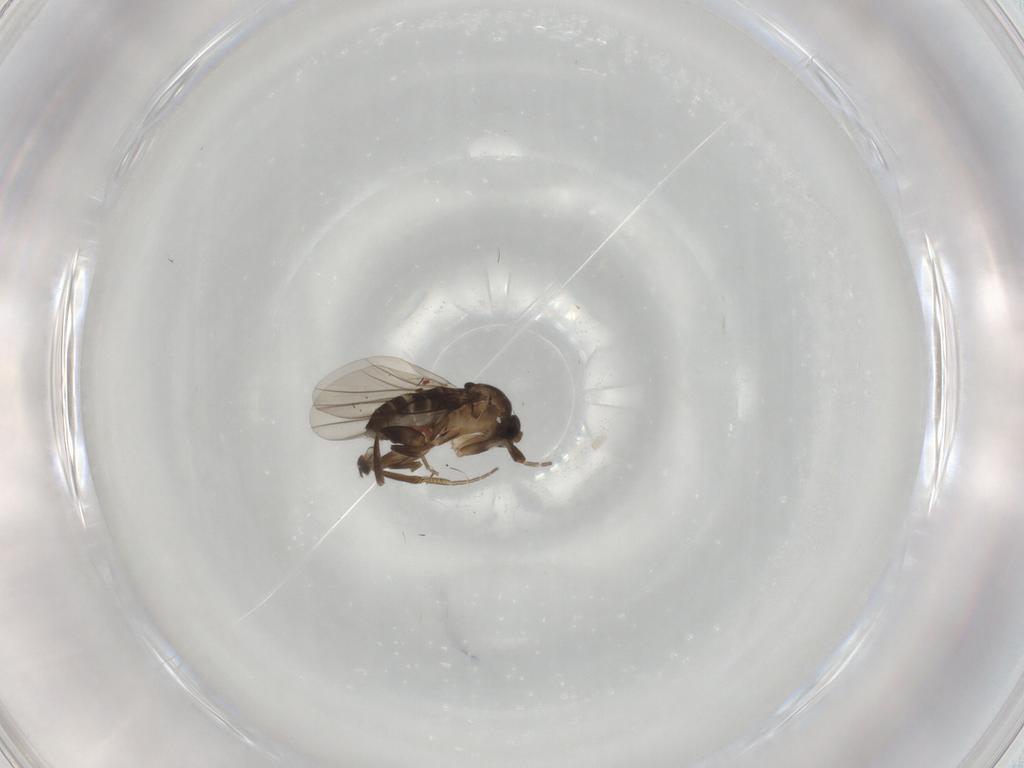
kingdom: Animalia
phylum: Arthropoda
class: Insecta
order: Diptera
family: Phoridae
